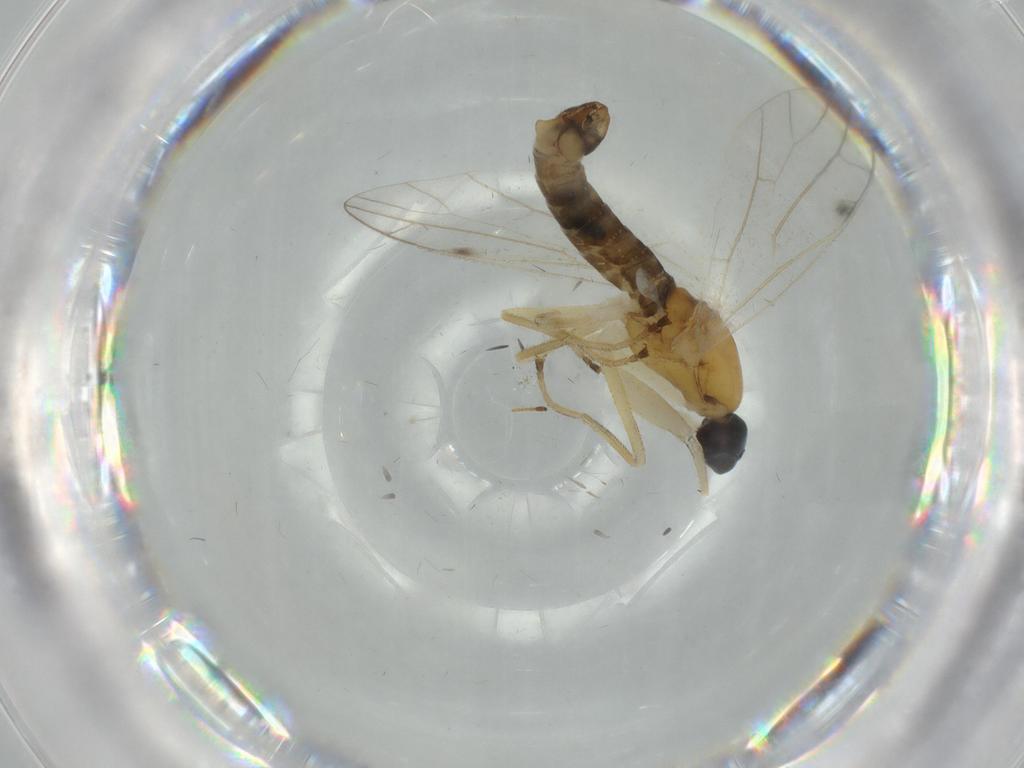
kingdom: Animalia
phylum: Arthropoda
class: Insecta
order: Diptera
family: Empididae
